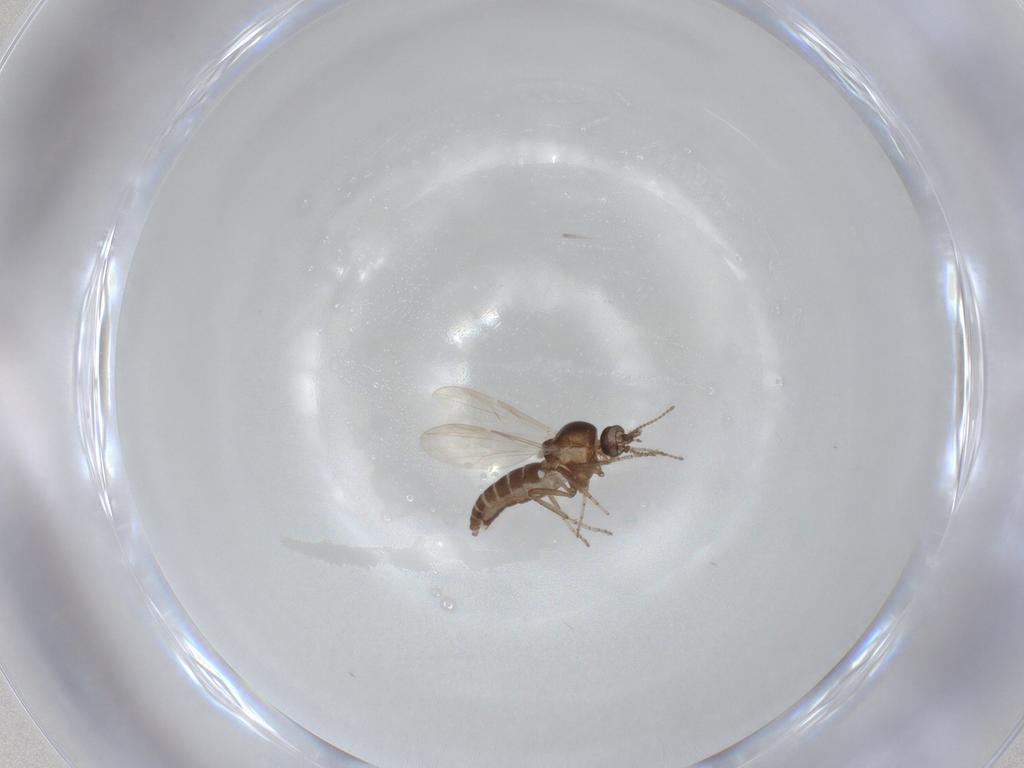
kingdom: Animalia
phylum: Arthropoda
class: Insecta
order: Diptera
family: Ceratopogonidae
